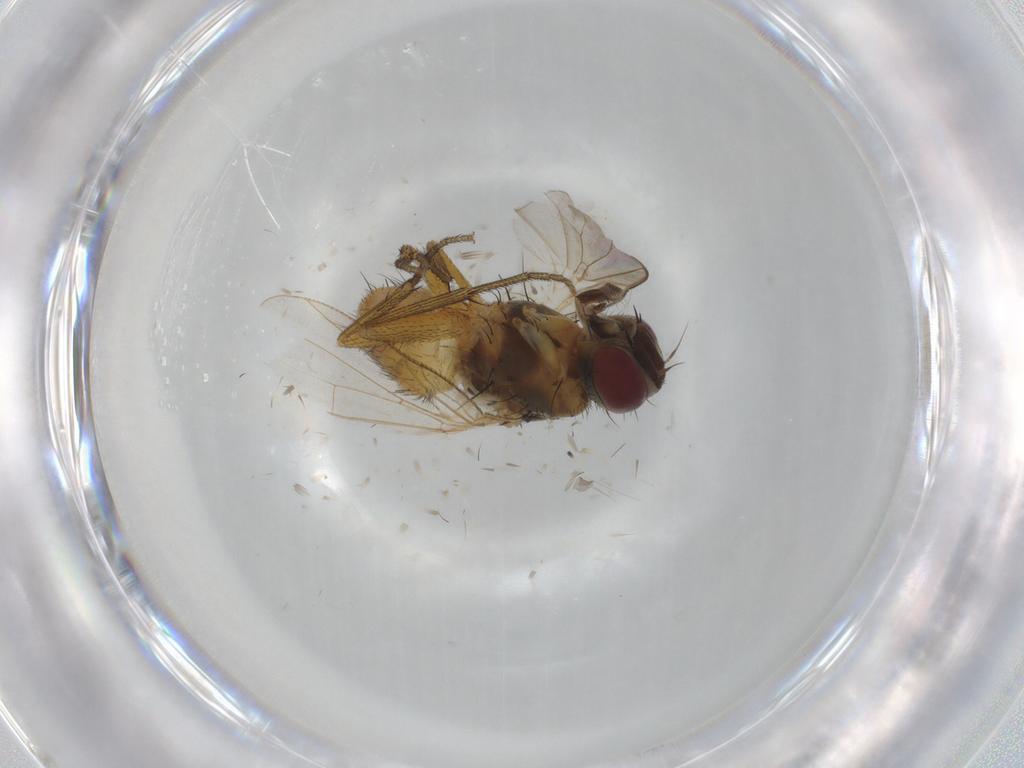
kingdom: Animalia
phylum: Arthropoda
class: Insecta
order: Diptera
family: Muscidae
